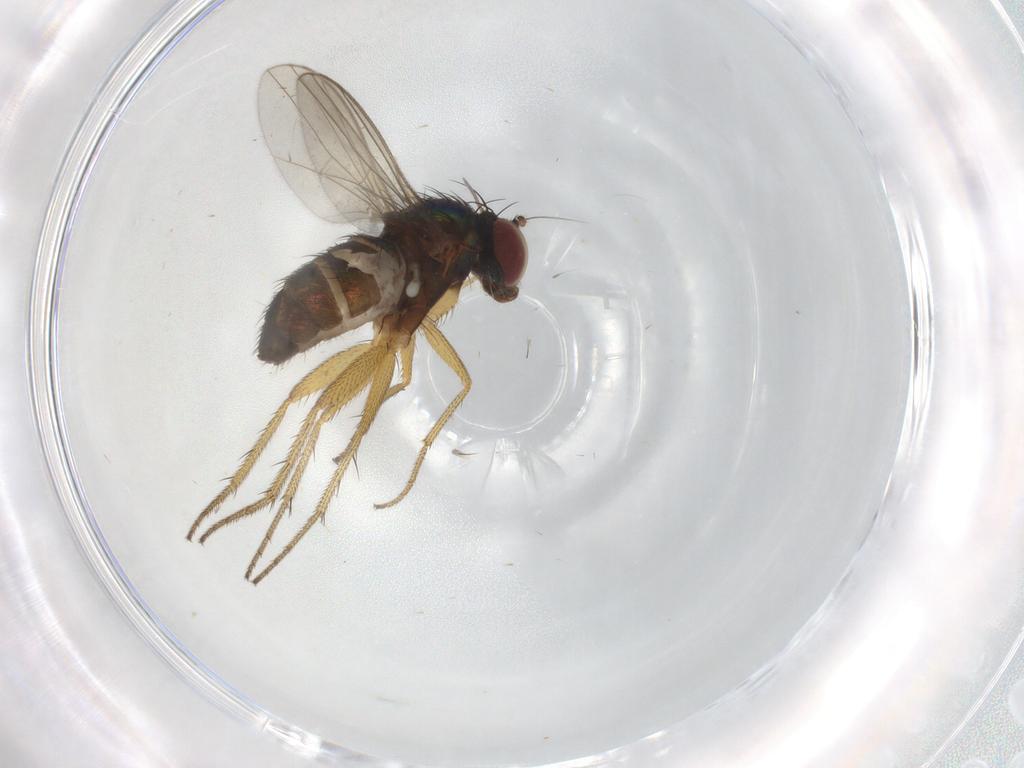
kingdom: Animalia
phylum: Arthropoda
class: Insecta
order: Diptera
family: Dolichopodidae
